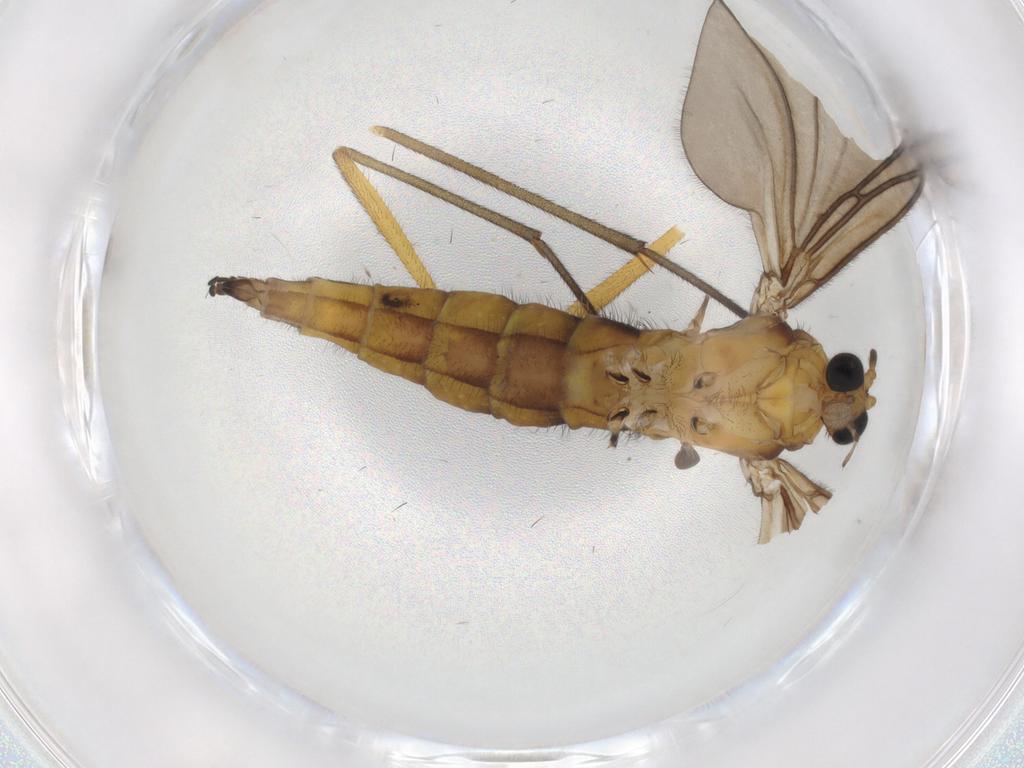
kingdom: Animalia
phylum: Arthropoda
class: Insecta
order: Diptera
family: Sciaridae
